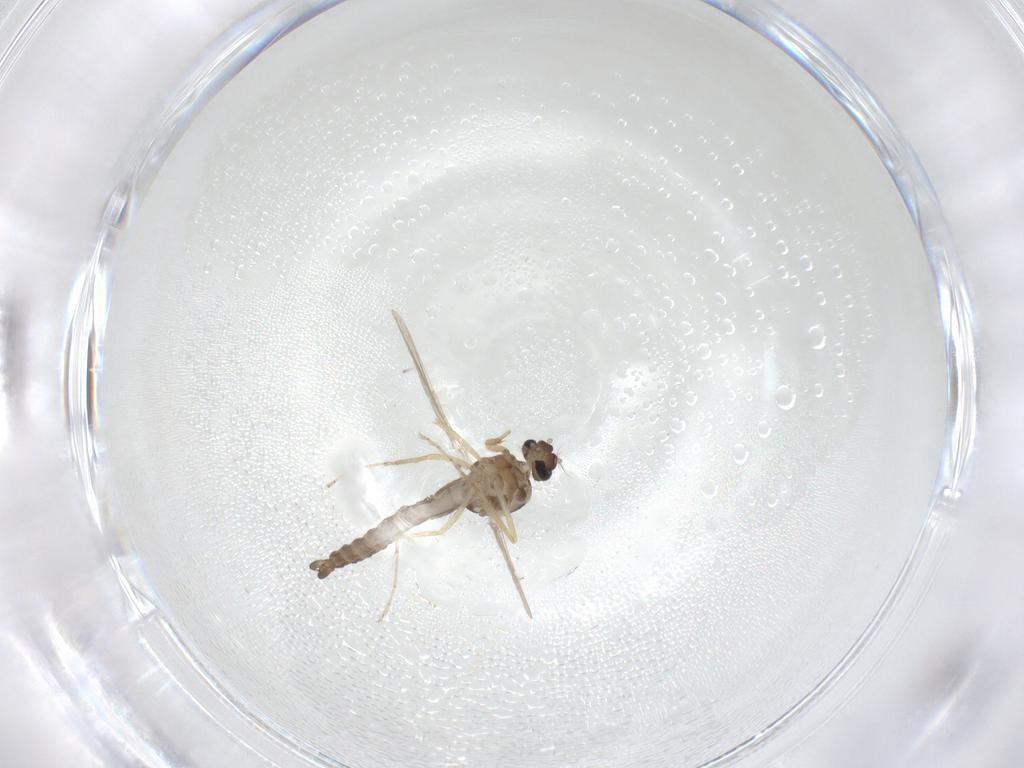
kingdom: Animalia
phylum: Arthropoda
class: Insecta
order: Diptera
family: Ceratopogonidae
